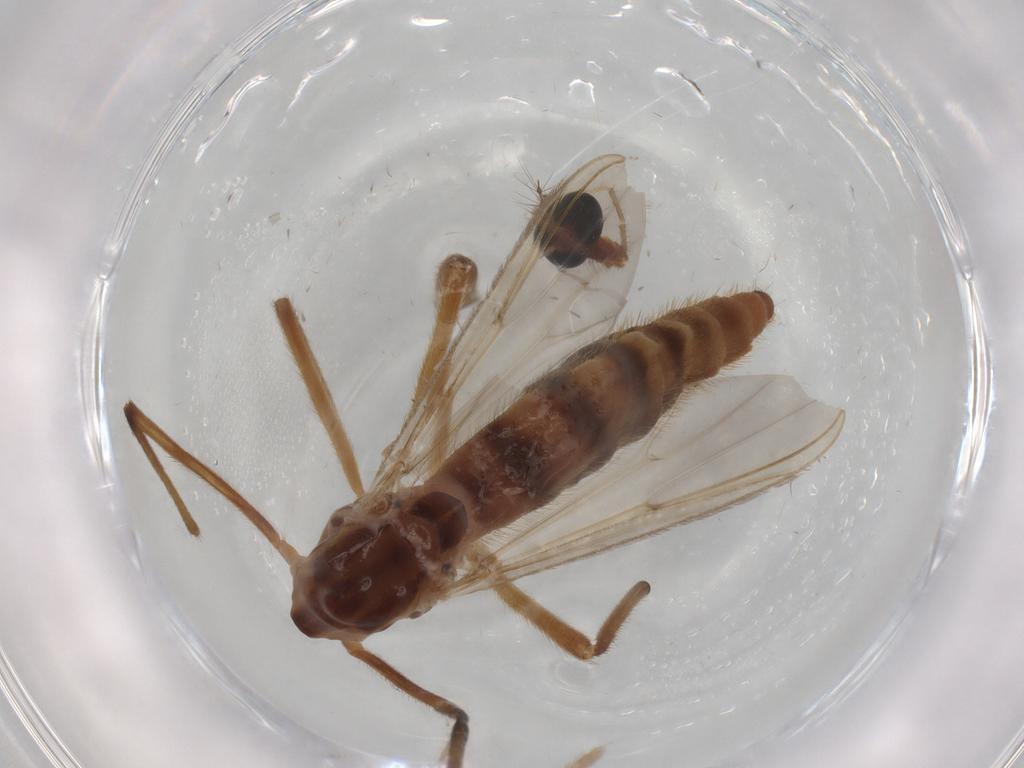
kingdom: Animalia
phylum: Arthropoda
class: Insecta
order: Diptera
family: Chironomidae
